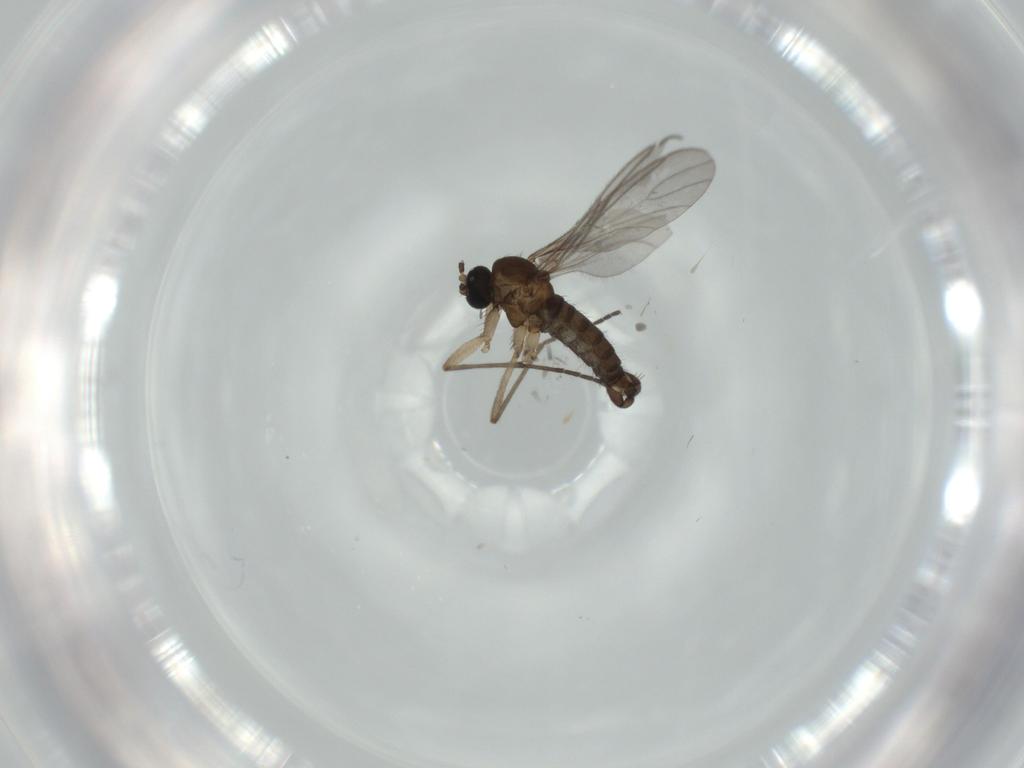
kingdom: Animalia
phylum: Arthropoda
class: Insecta
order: Diptera
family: Sciaridae
